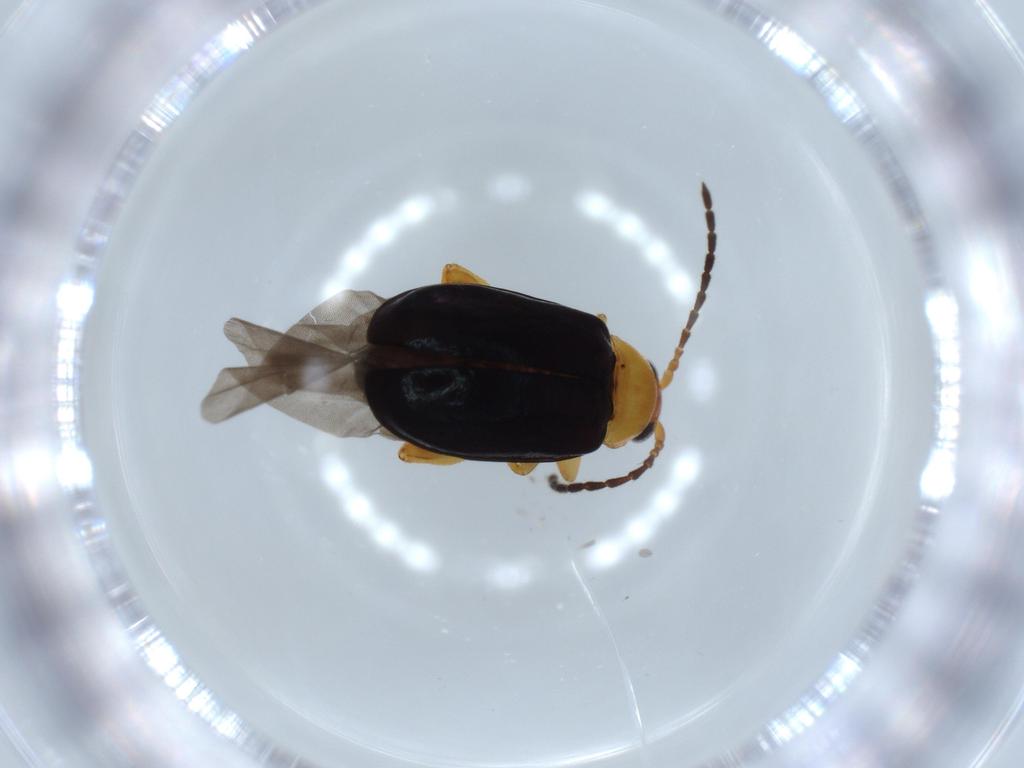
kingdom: Animalia
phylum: Arthropoda
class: Insecta
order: Coleoptera
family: Chrysomelidae
